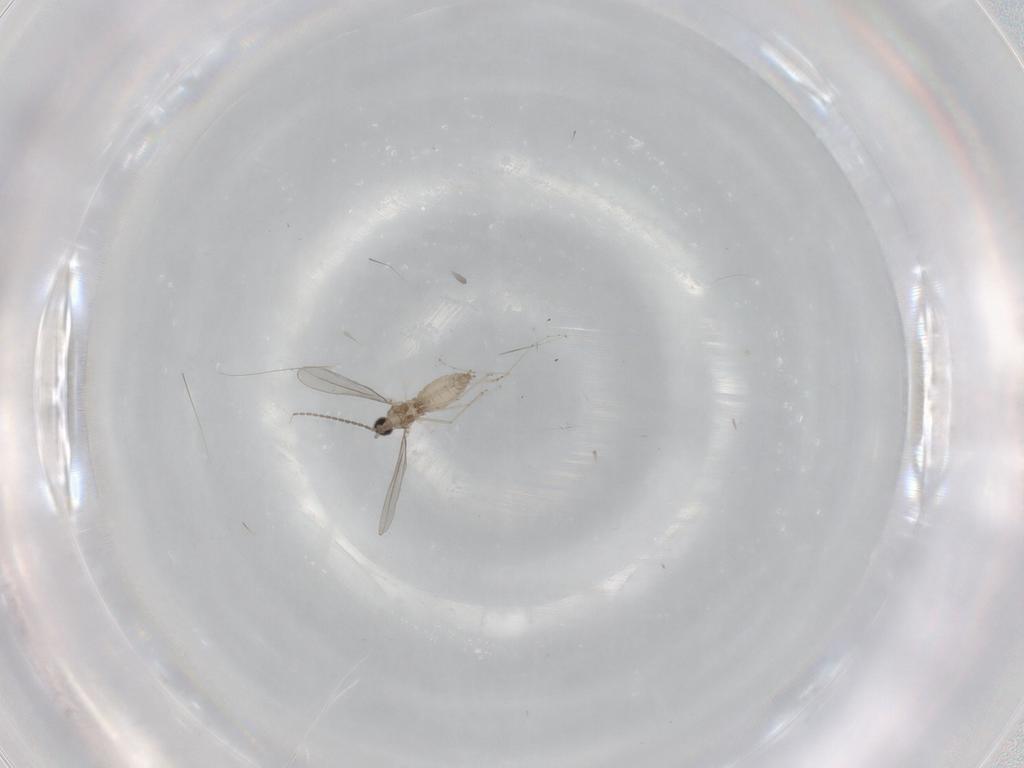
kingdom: Animalia
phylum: Arthropoda
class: Insecta
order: Diptera
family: Cecidomyiidae
